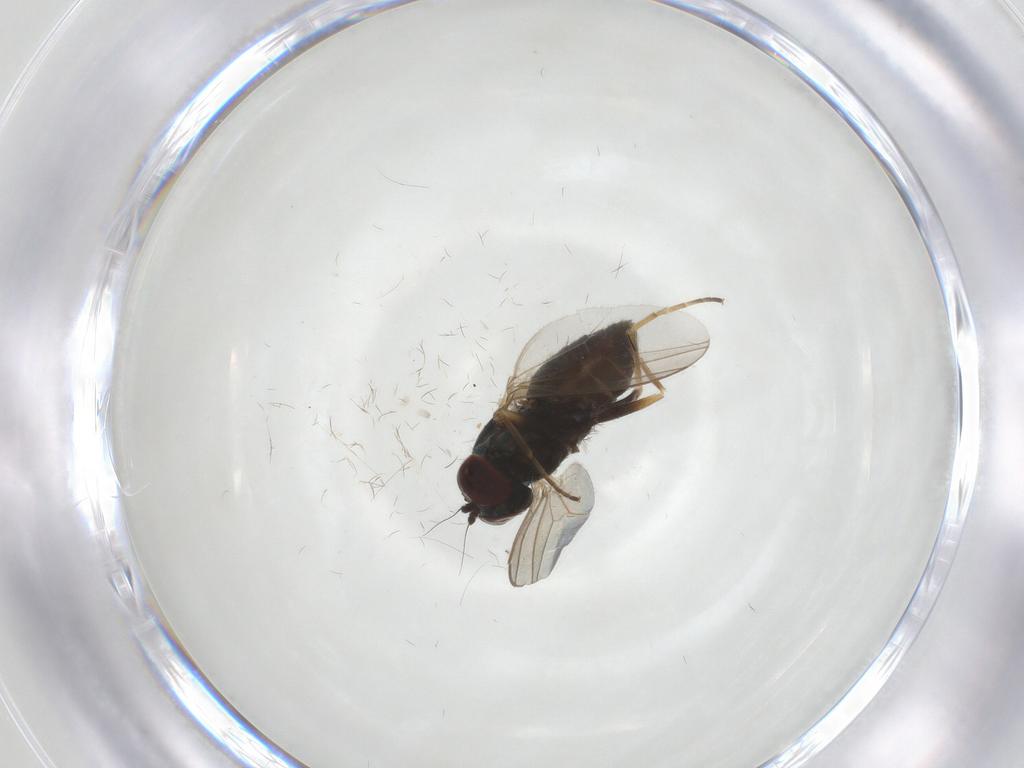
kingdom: Animalia
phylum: Arthropoda
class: Insecta
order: Diptera
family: Dolichopodidae
